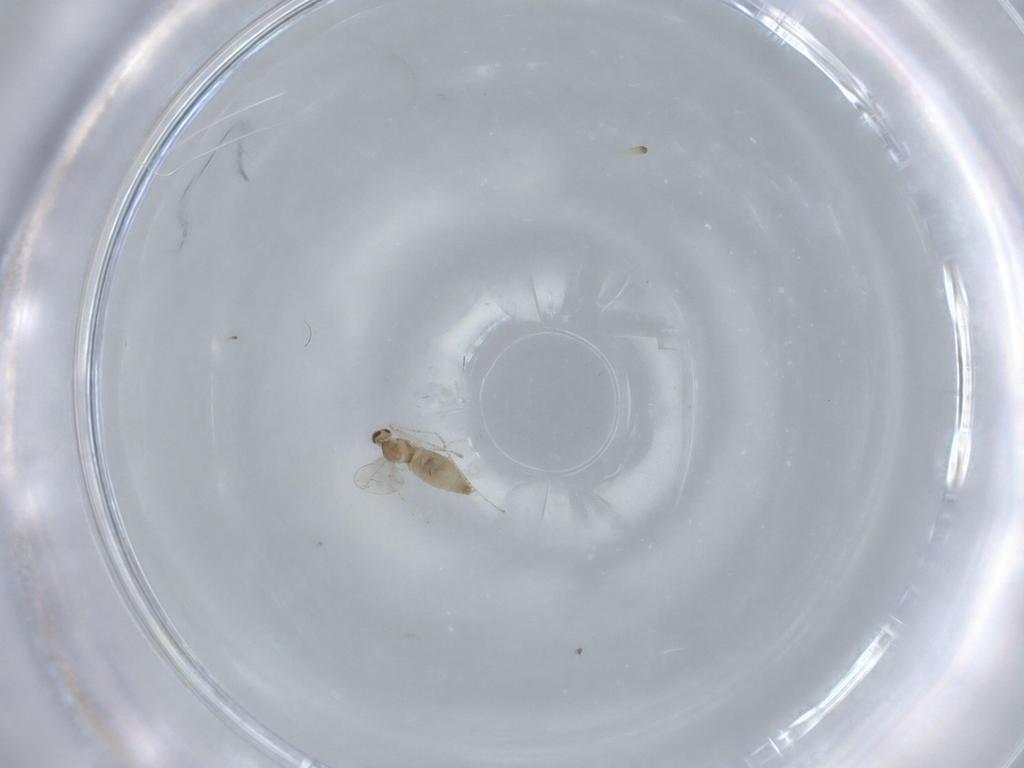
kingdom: Animalia
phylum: Arthropoda
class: Insecta
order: Diptera
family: Cecidomyiidae
